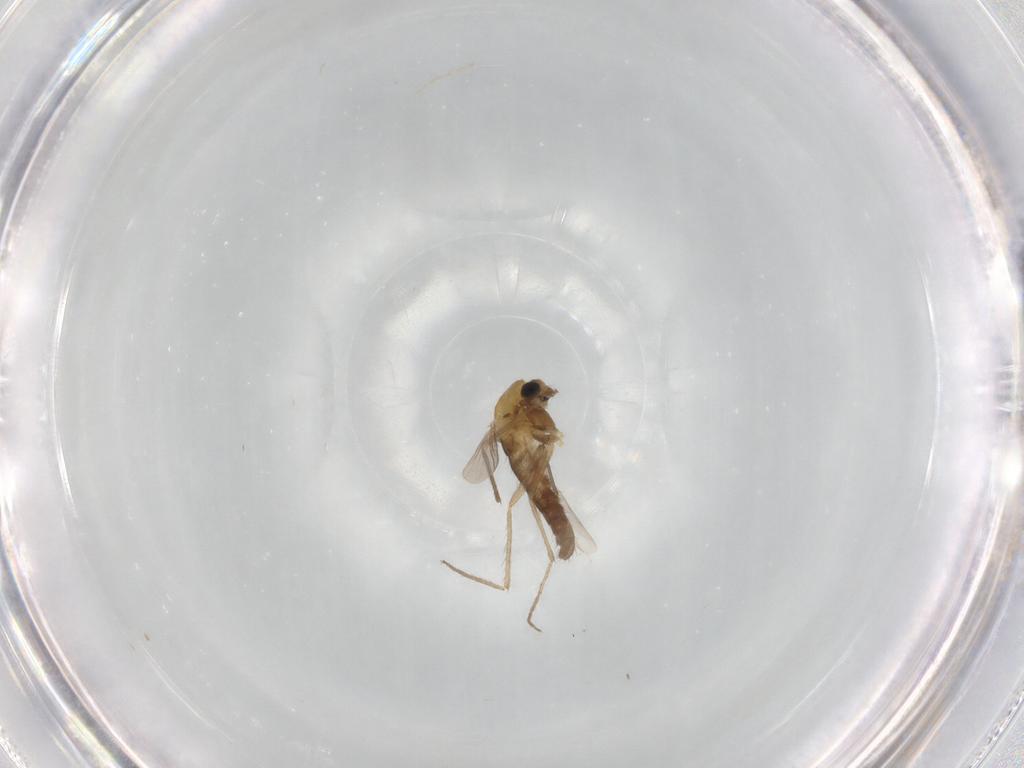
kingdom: Animalia
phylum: Arthropoda
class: Insecta
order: Diptera
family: Chironomidae
